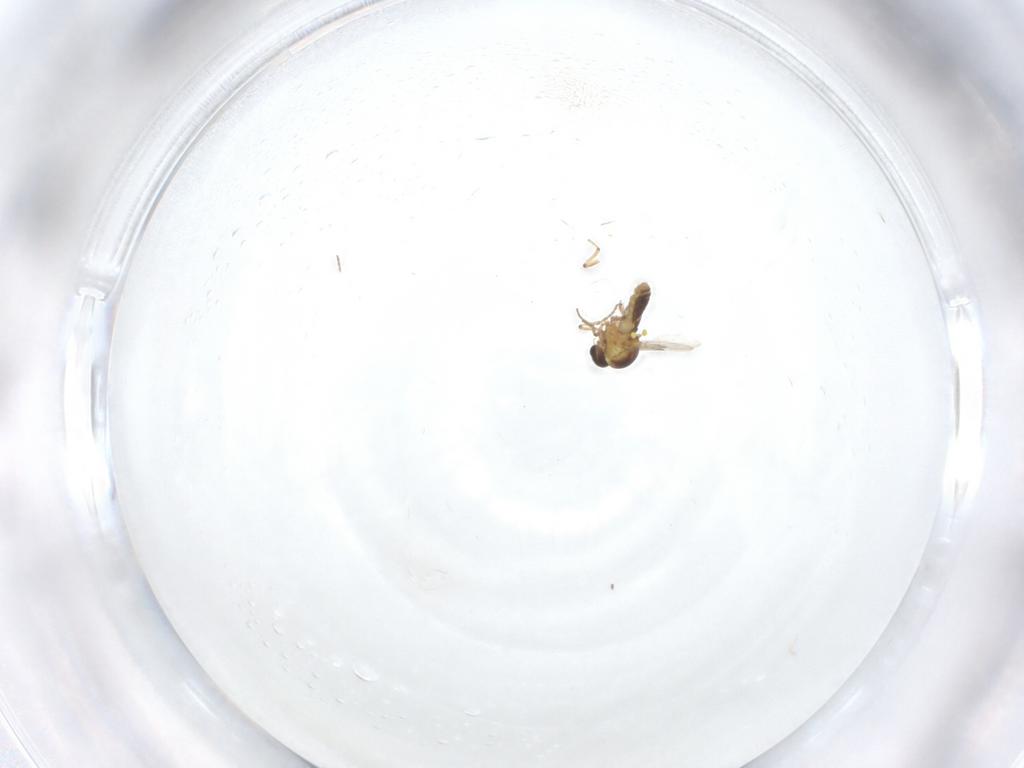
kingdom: Animalia
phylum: Arthropoda
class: Insecta
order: Diptera
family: Ceratopogonidae
